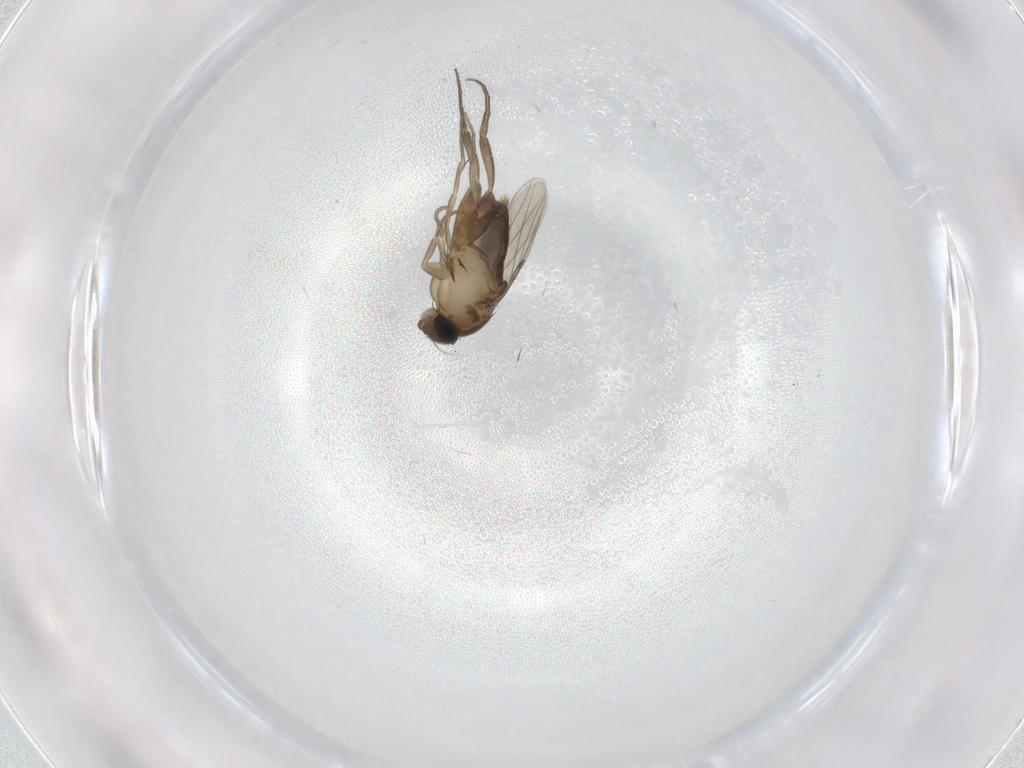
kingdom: Animalia
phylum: Arthropoda
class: Insecta
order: Diptera
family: Phoridae
